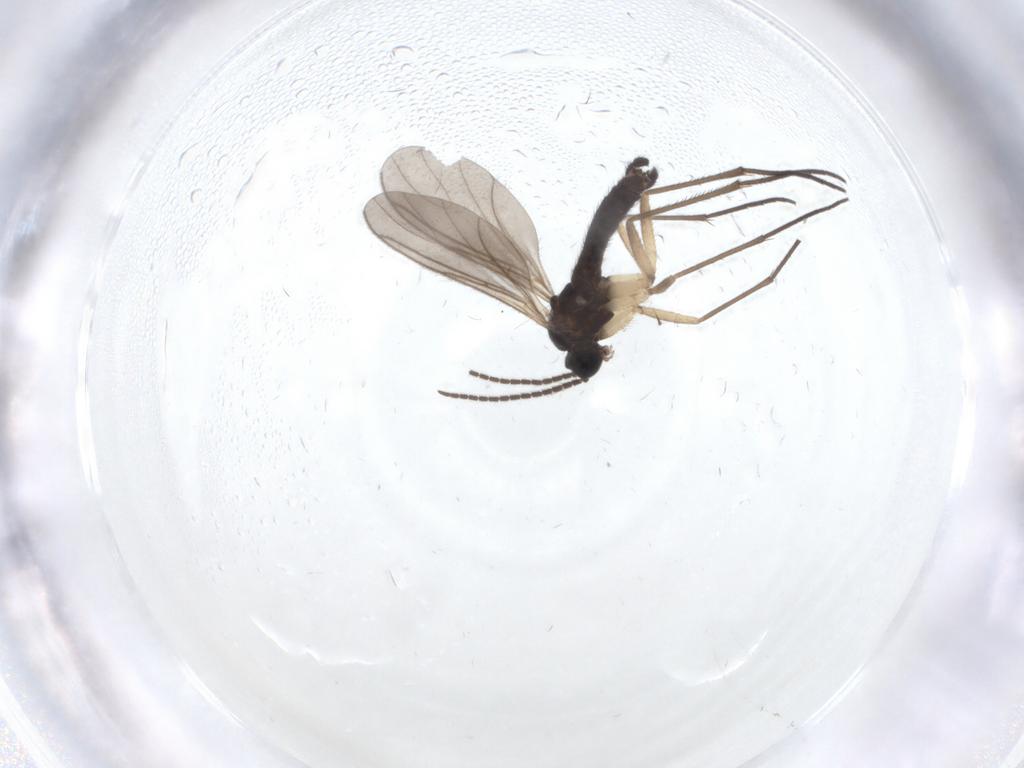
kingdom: Animalia
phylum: Arthropoda
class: Insecta
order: Diptera
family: Sciaridae
